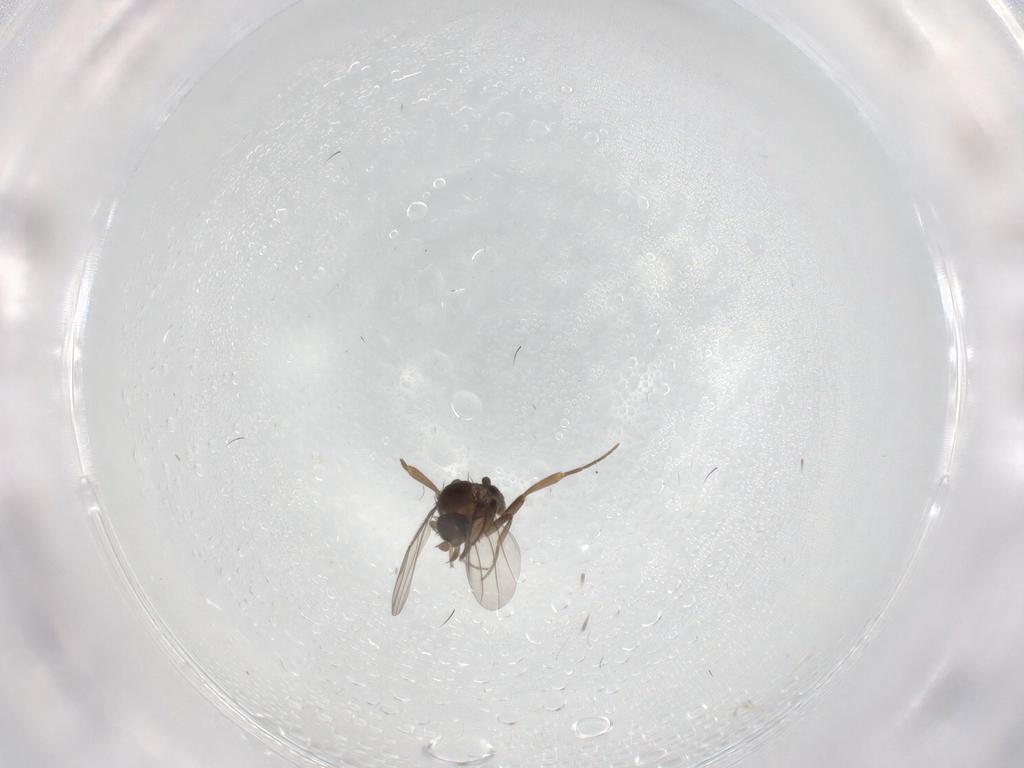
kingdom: Animalia
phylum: Arthropoda
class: Insecta
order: Diptera
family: Phoridae
